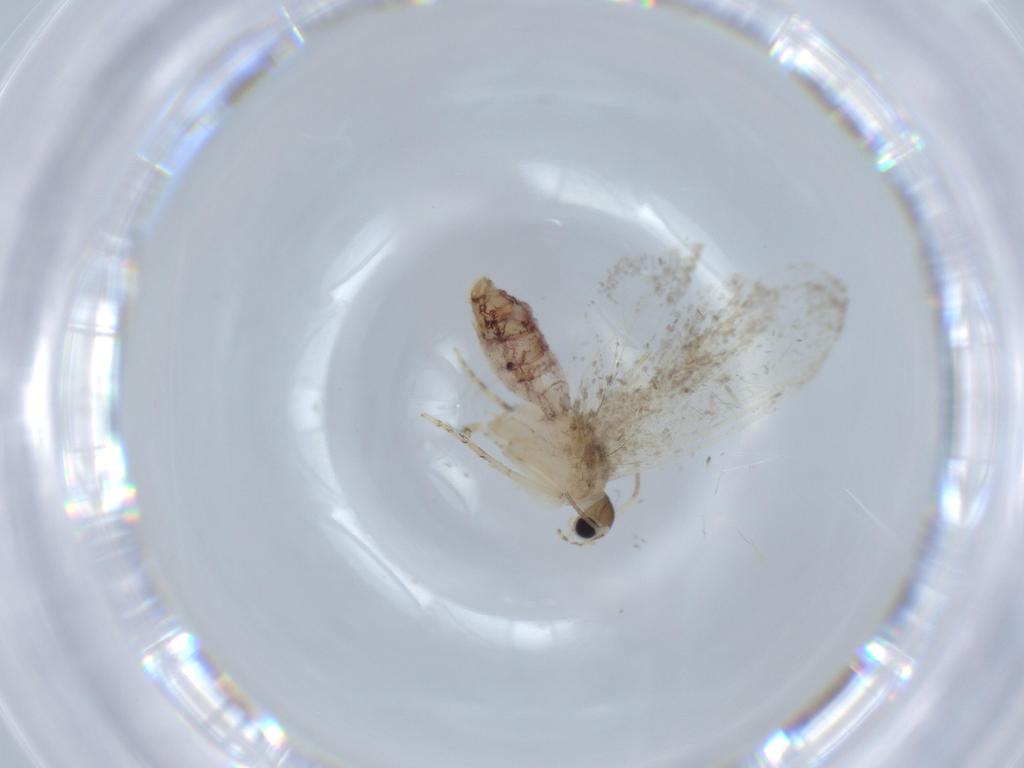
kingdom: Animalia
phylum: Arthropoda
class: Insecta
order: Lepidoptera
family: Tineidae
